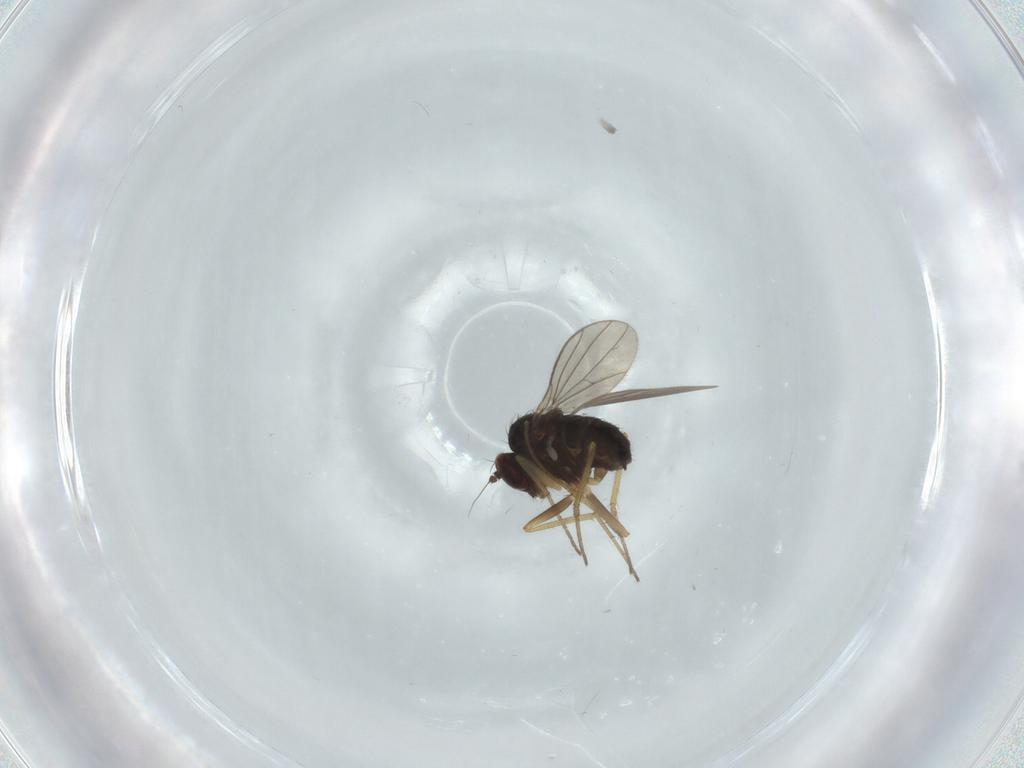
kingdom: Animalia
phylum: Arthropoda
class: Insecta
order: Diptera
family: Dolichopodidae
